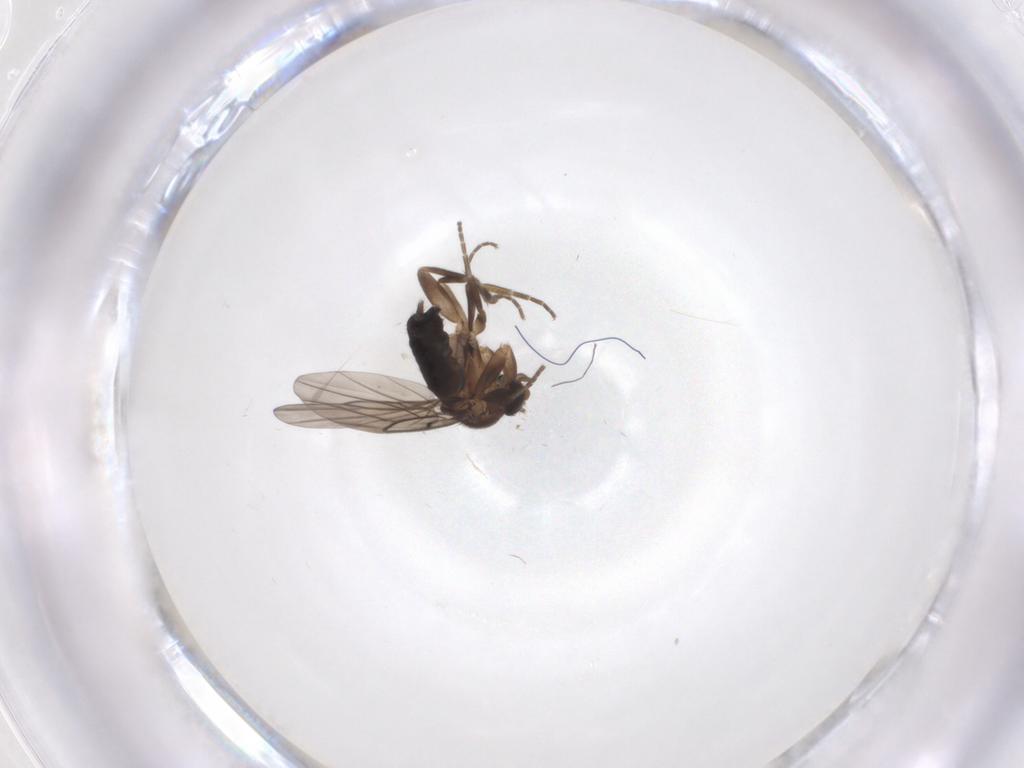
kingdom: Animalia
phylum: Arthropoda
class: Insecta
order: Diptera
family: Phoridae
